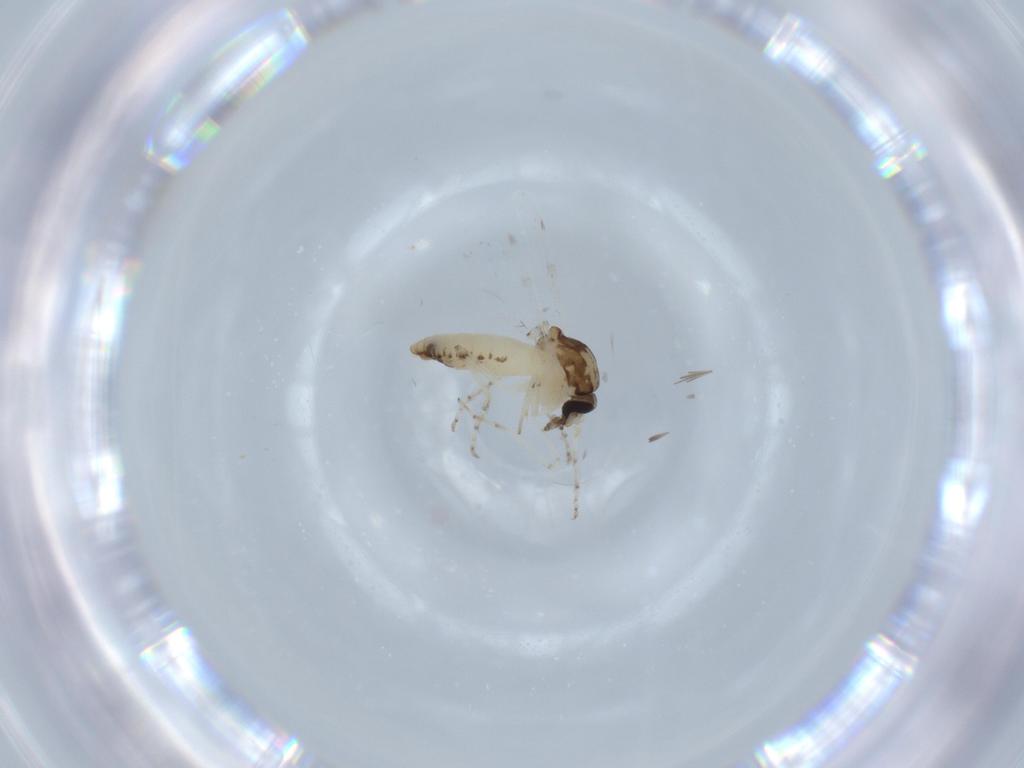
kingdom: Animalia
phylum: Arthropoda
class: Insecta
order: Diptera
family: Ceratopogonidae
